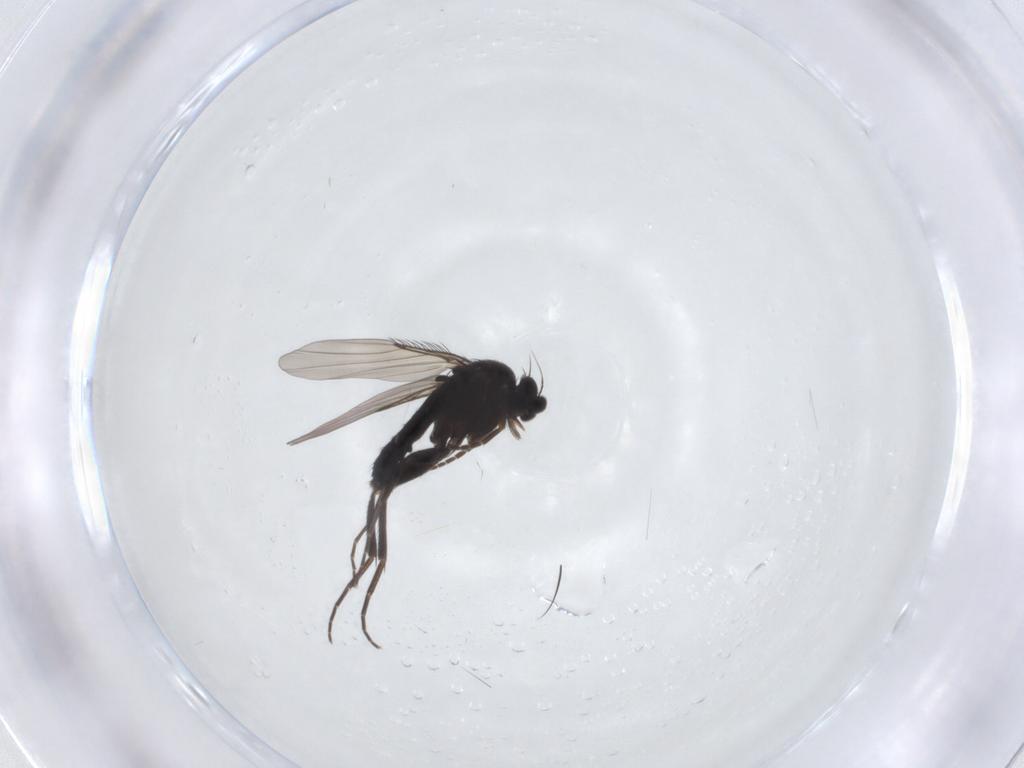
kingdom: Animalia
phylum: Arthropoda
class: Insecta
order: Diptera
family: Phoridae
